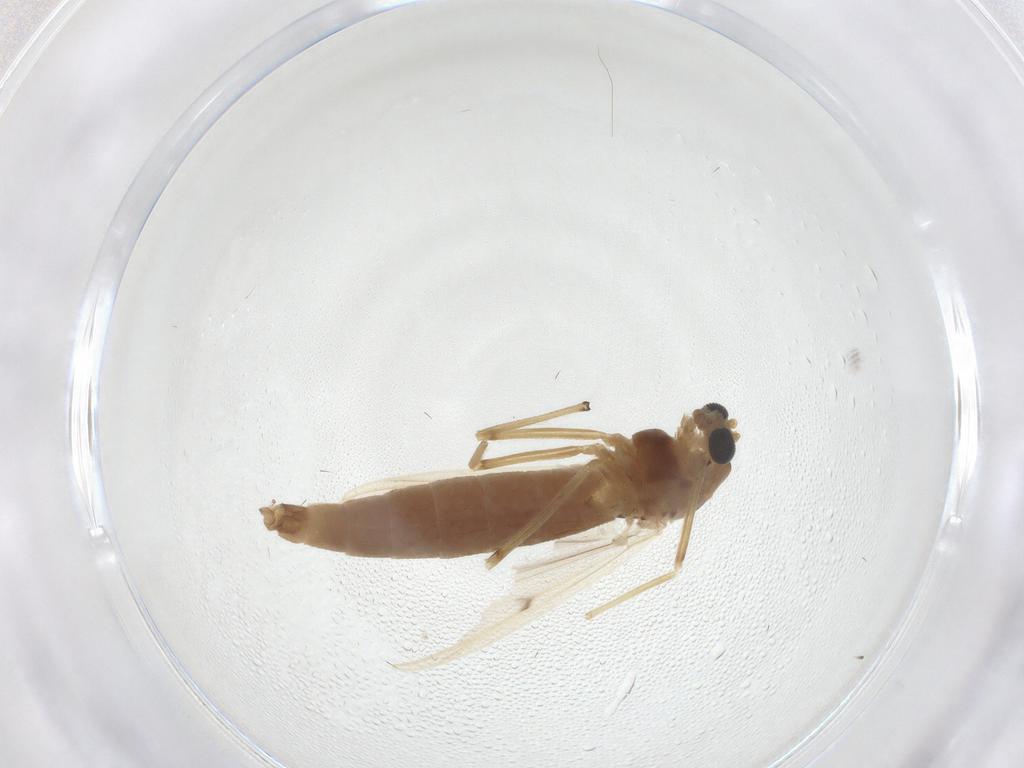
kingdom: Animalia
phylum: Arthropoda
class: Insecta
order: Diptera
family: Chironomidae
